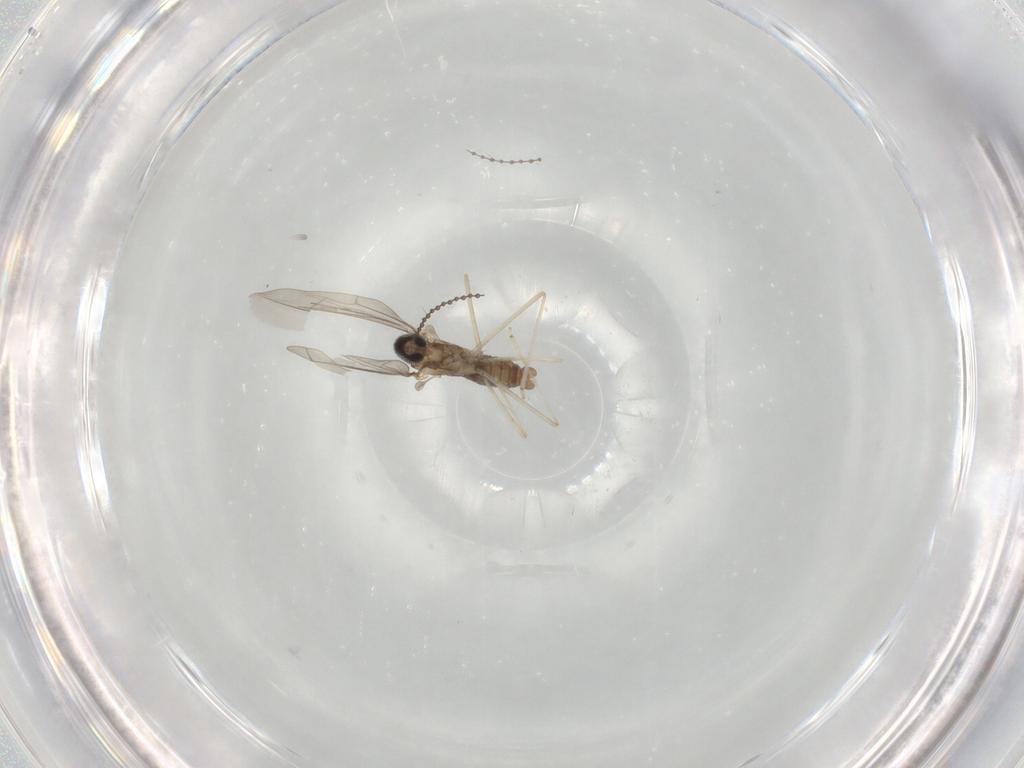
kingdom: Animalia
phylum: Arthropoda
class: Insecta
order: Diptera
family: Cecidomyiidae
